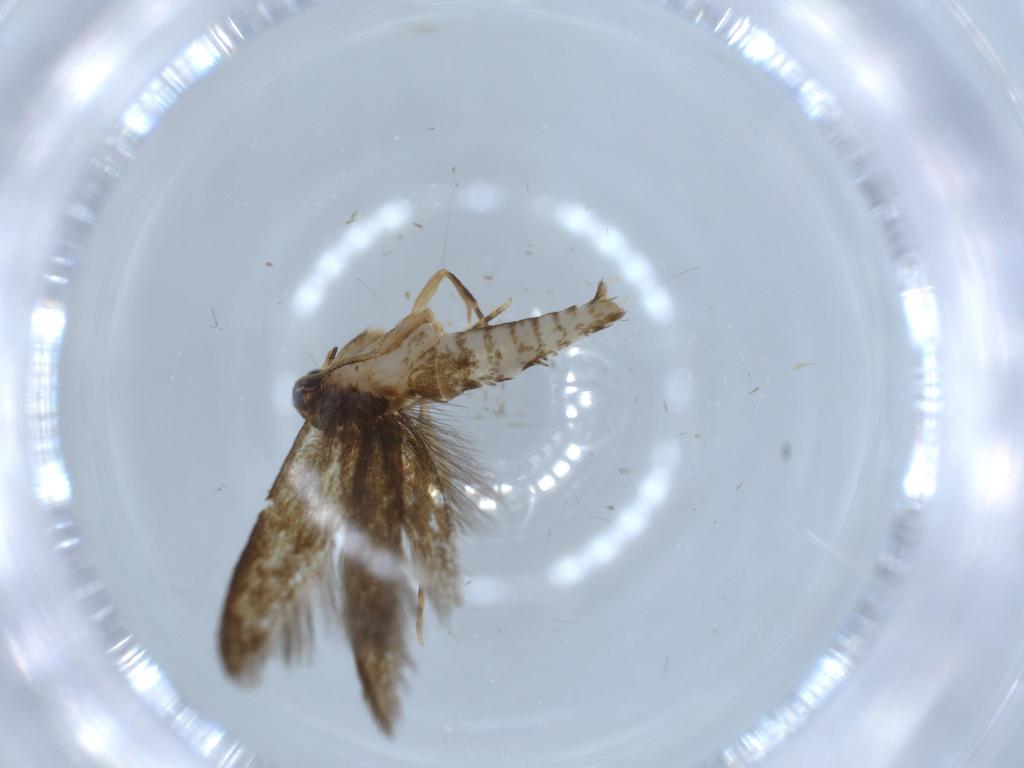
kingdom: Animalia
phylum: Arthropoda
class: Insecta
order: Lepidoptera
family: Tineidae
